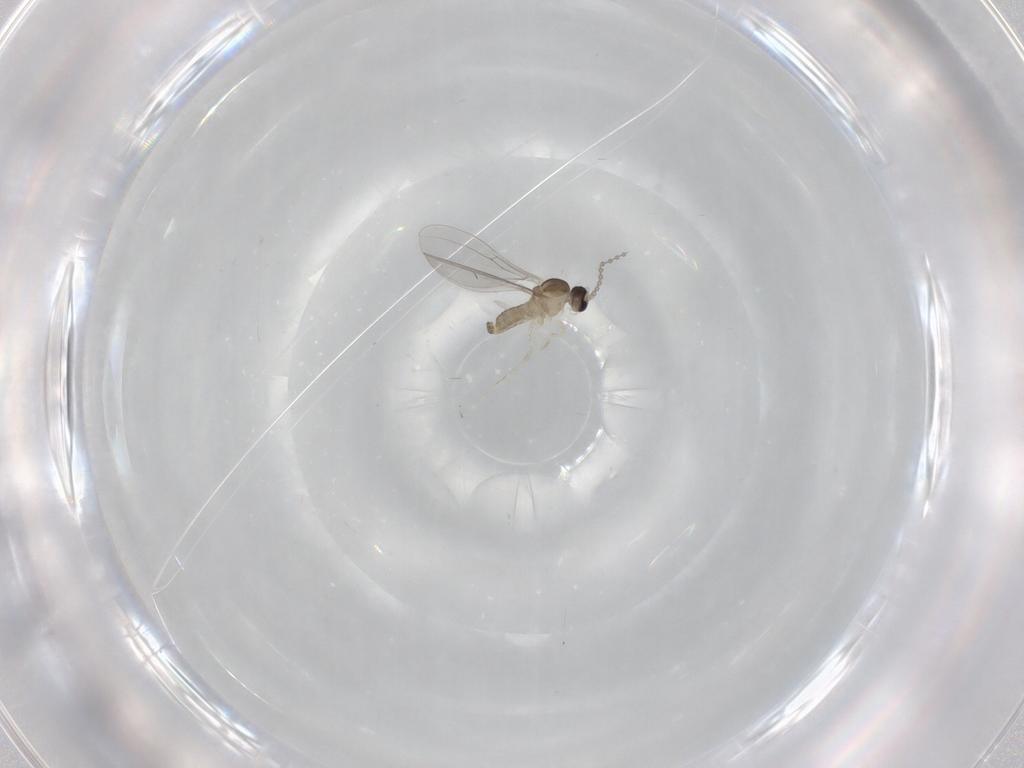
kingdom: Animalia
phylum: Arthropoda
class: Insecta
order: Diptera
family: Cecidomyiidae
